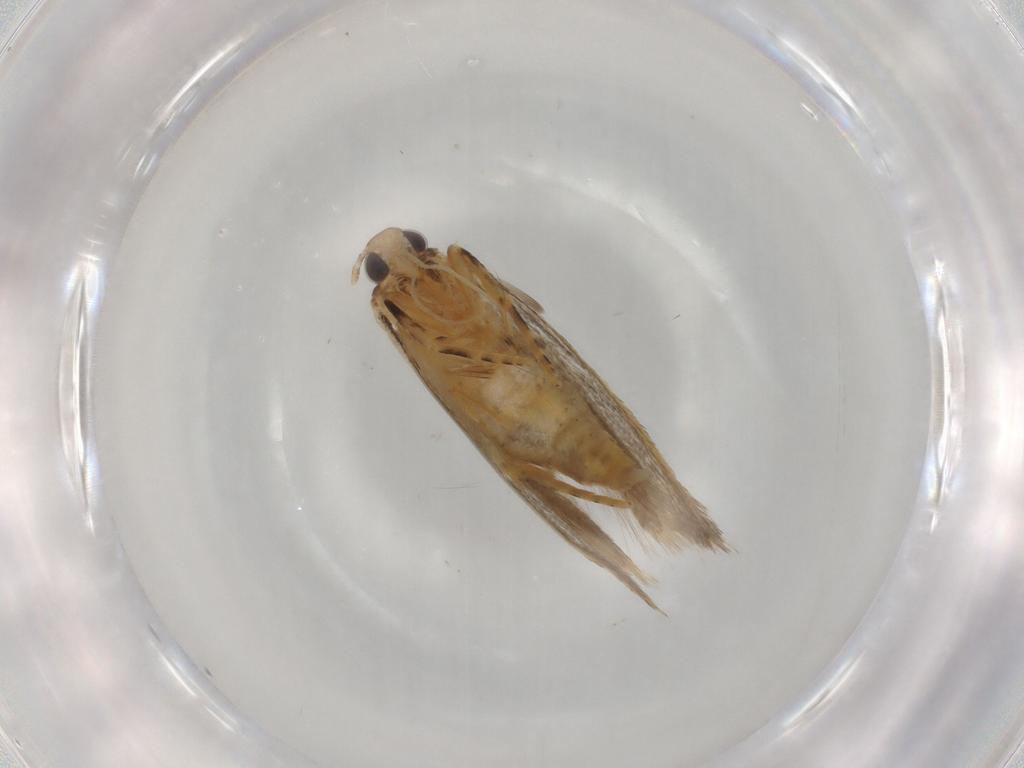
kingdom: Animalia
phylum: Arthropoda
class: Insecta
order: Lepidoptera
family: Autostichidae
